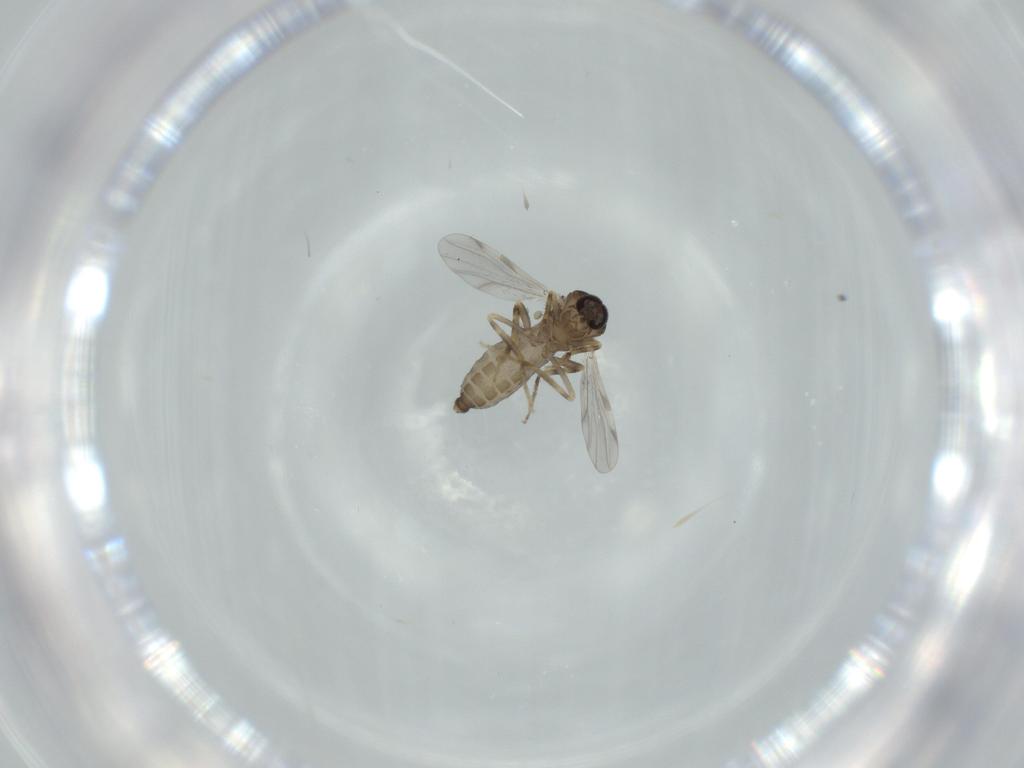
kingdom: Animalia
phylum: Arthropoda
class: Insecta
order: Diptera
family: Ceratopogonidae
